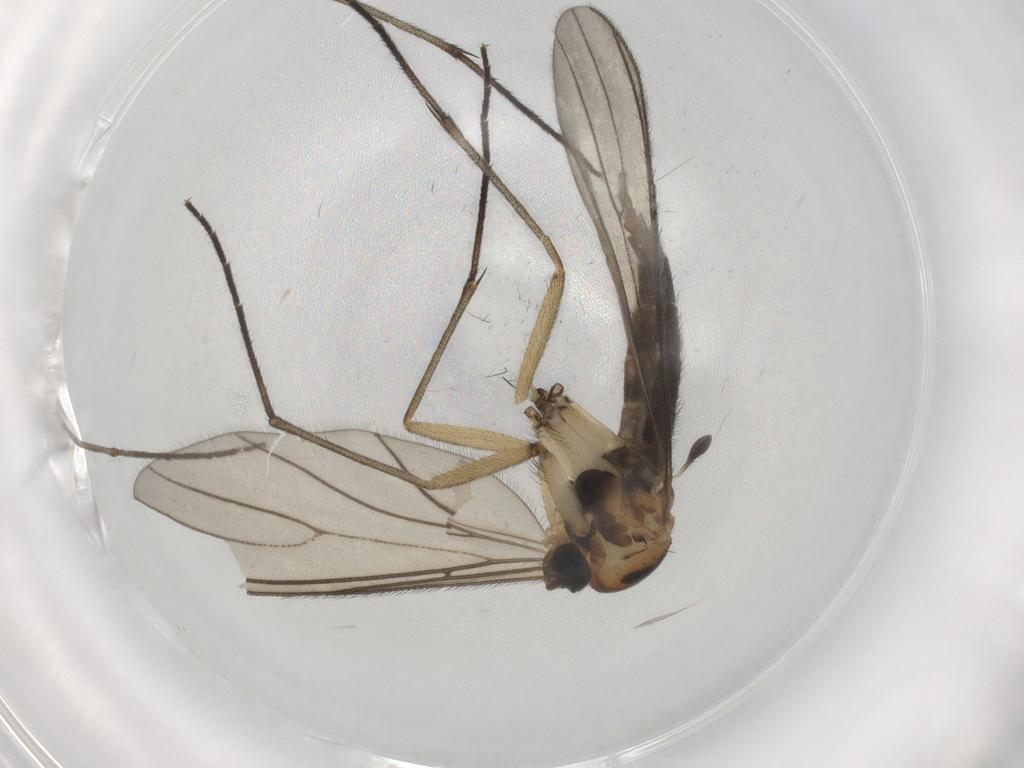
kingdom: Animalia
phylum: Arthropoda
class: Insecta
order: Diptera
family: Sciaridae
